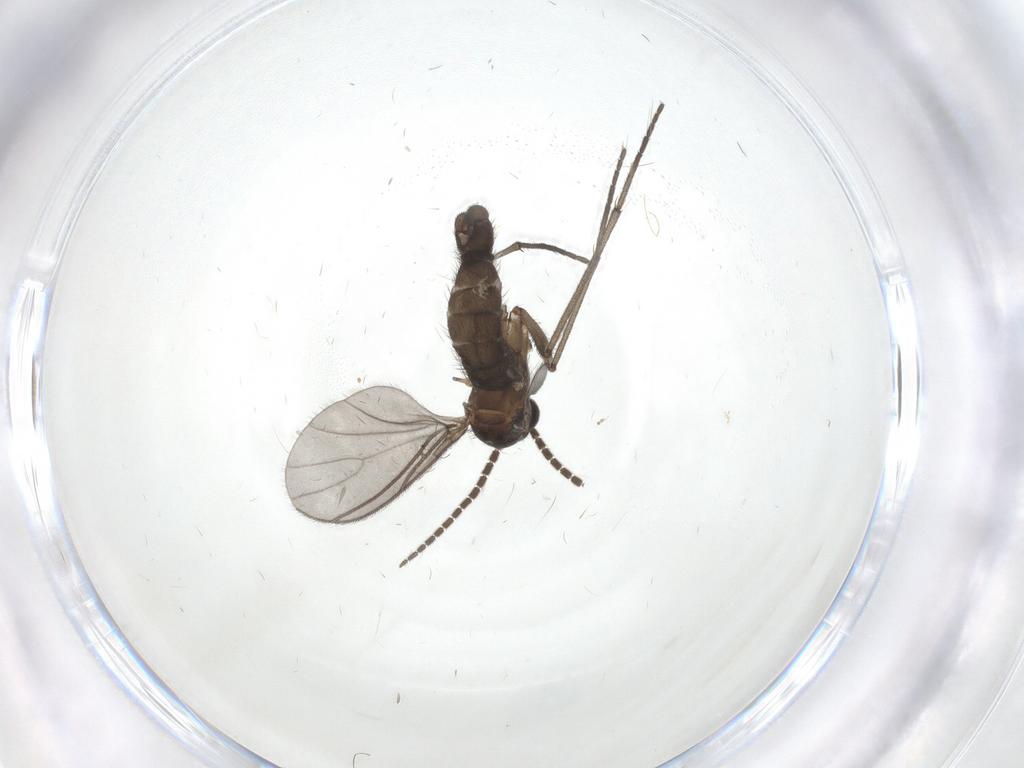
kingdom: Animalia
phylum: Arthropoda
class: Insecta
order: Diptera
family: Sciaridae
